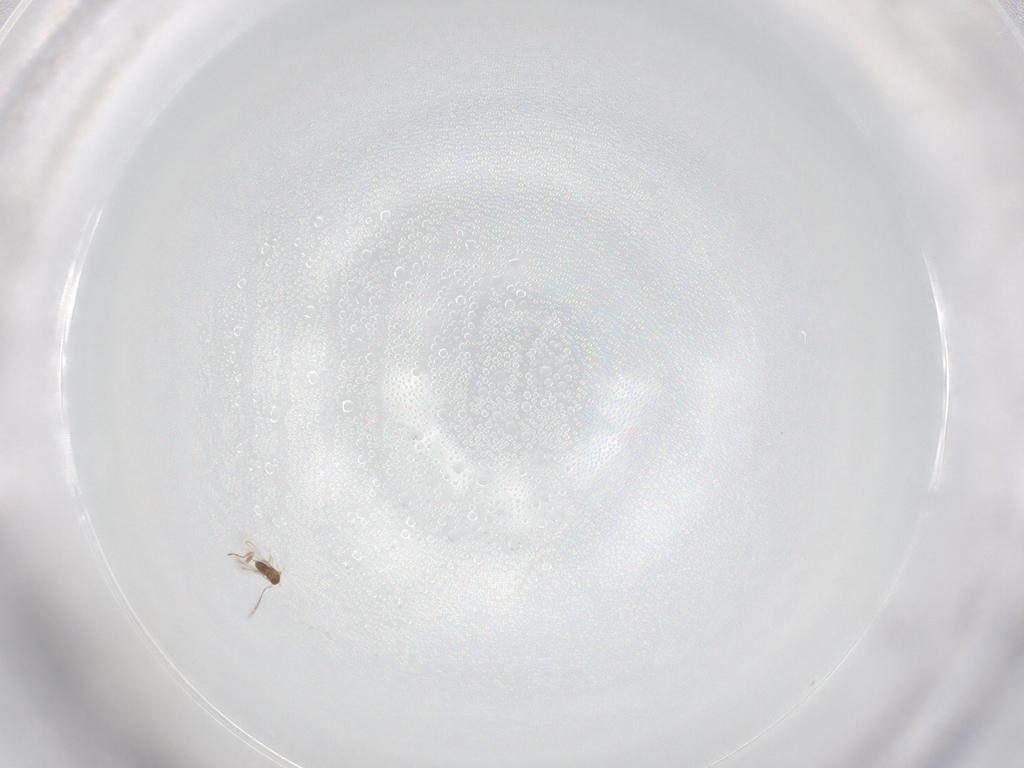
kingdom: Animalia
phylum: Arthropoda
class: Insecta
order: Hymenoptera
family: Trichogrammatidae
